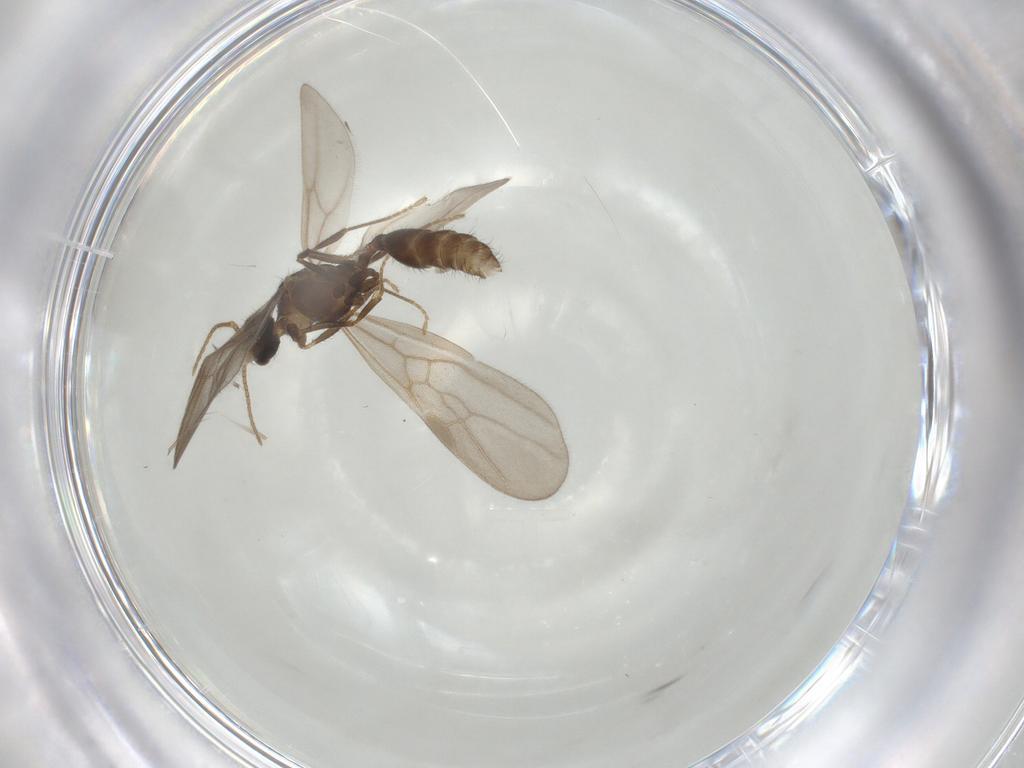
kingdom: Animalia
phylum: Arthropoda
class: Insecta
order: Hymenoptera
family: Formicidae
